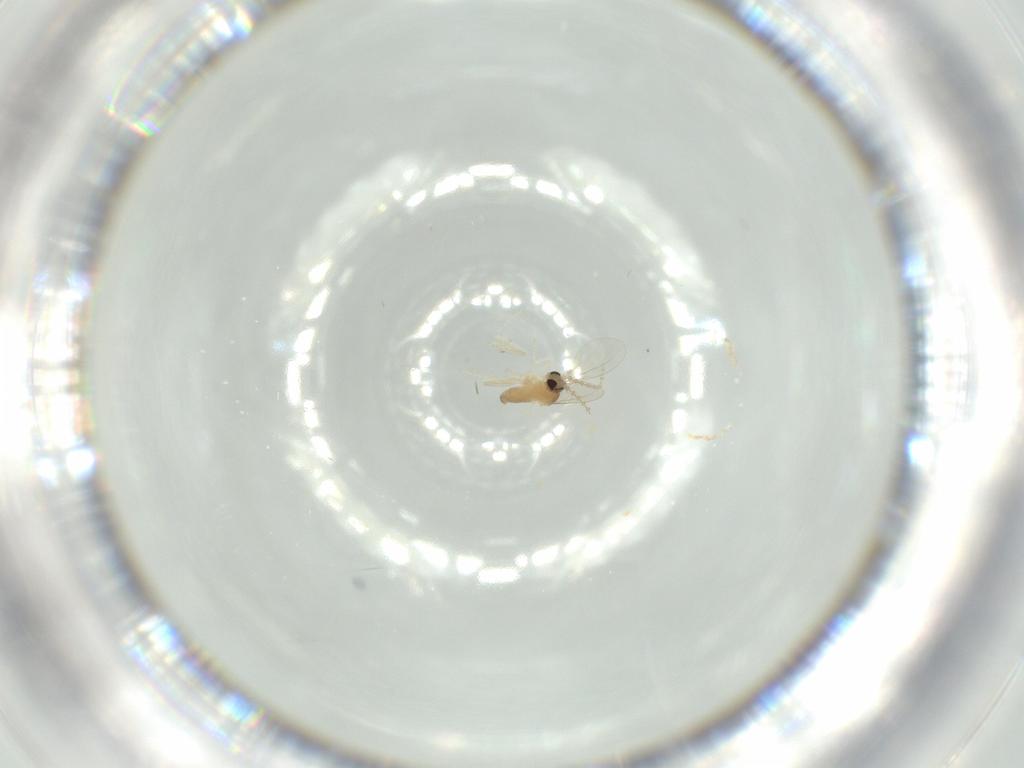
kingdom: Animalia
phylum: Arthropoda
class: Insecta
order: Diptera
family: Cecidomyiidae
